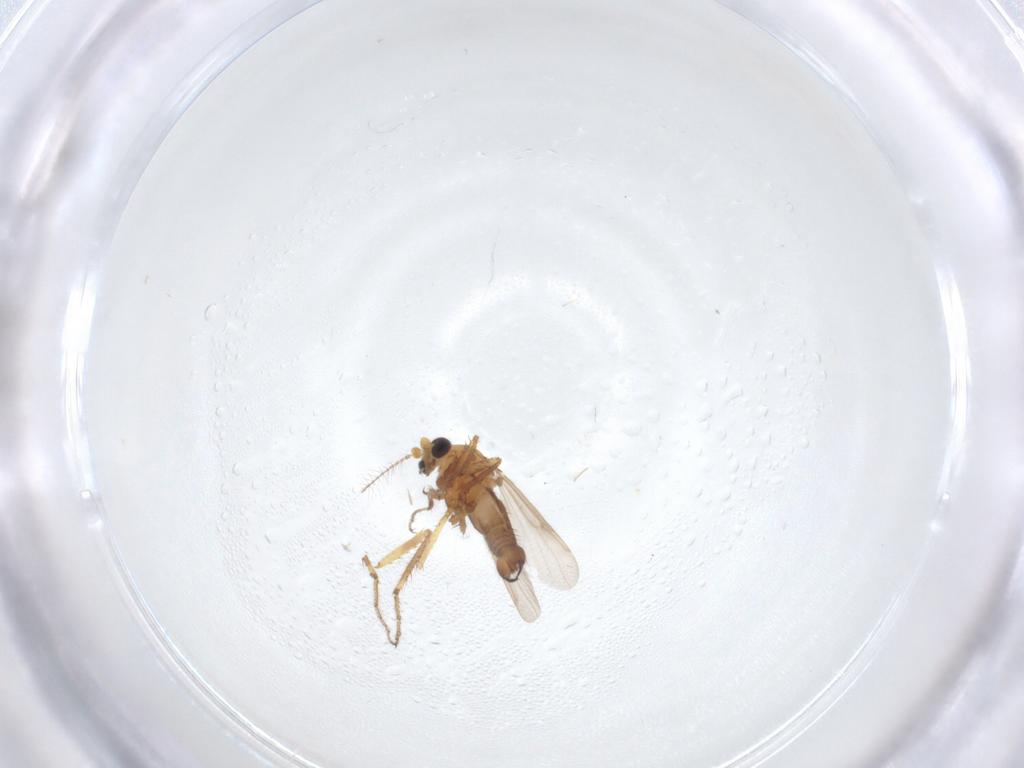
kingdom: Animalia
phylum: Arthropoda
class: Insecta
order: Diptera
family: Ceratopogonidae
